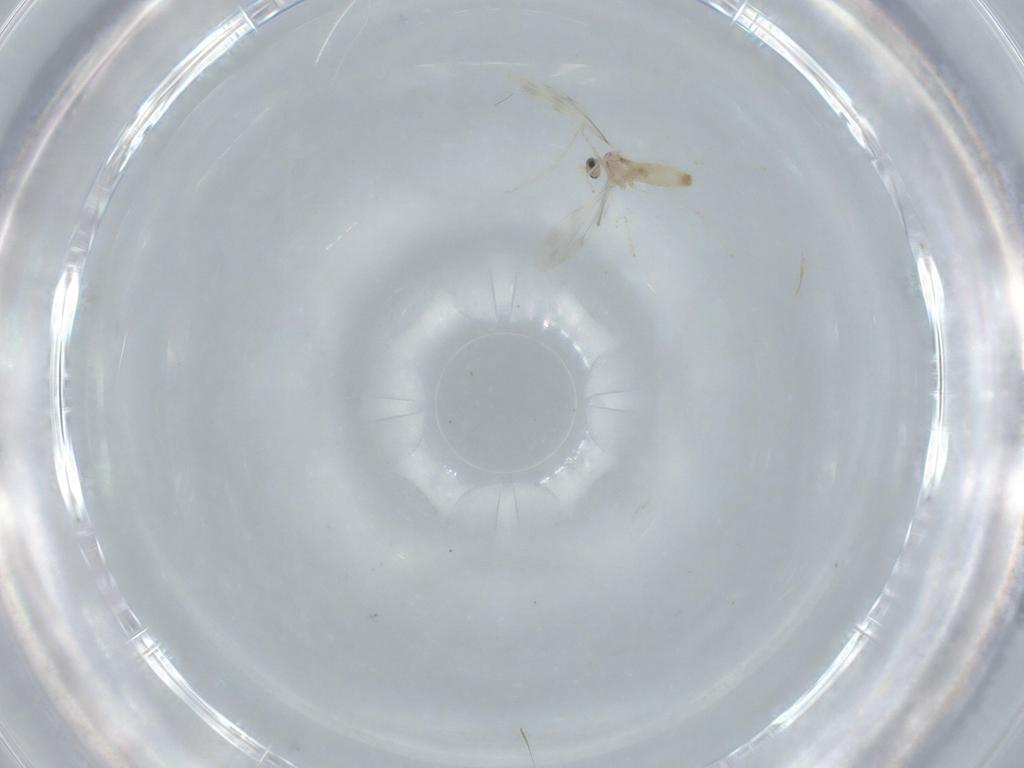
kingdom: Animalia
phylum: Arthropoda
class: Insecta
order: Diptera
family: Cecidomyiidae
